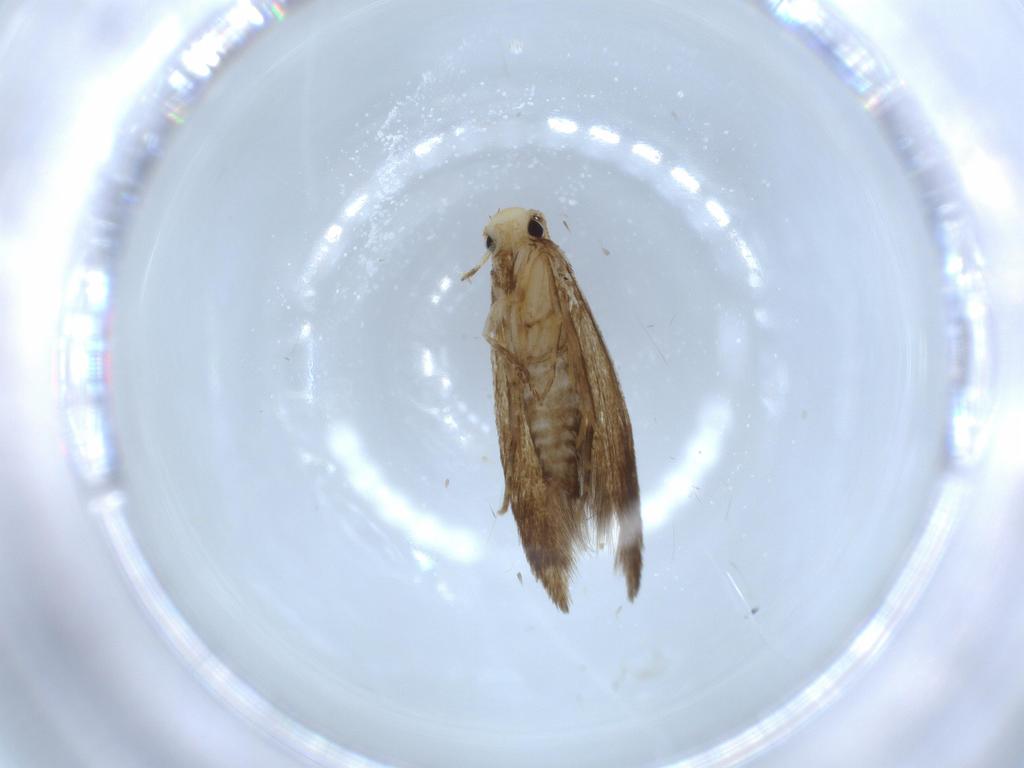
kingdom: Animalia
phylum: Arthropoda
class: Insecta
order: Lepidoptera
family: Tineidae
